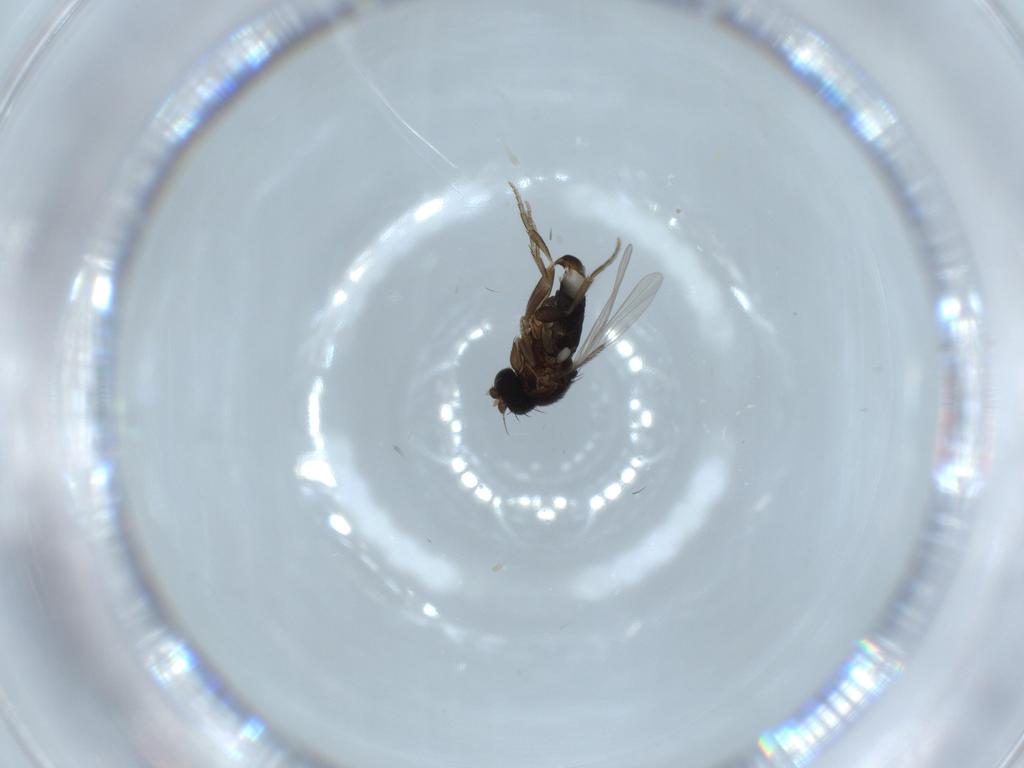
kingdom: Animalia
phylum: Arthropoda
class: Insecta
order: Diptera
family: Phoridae
